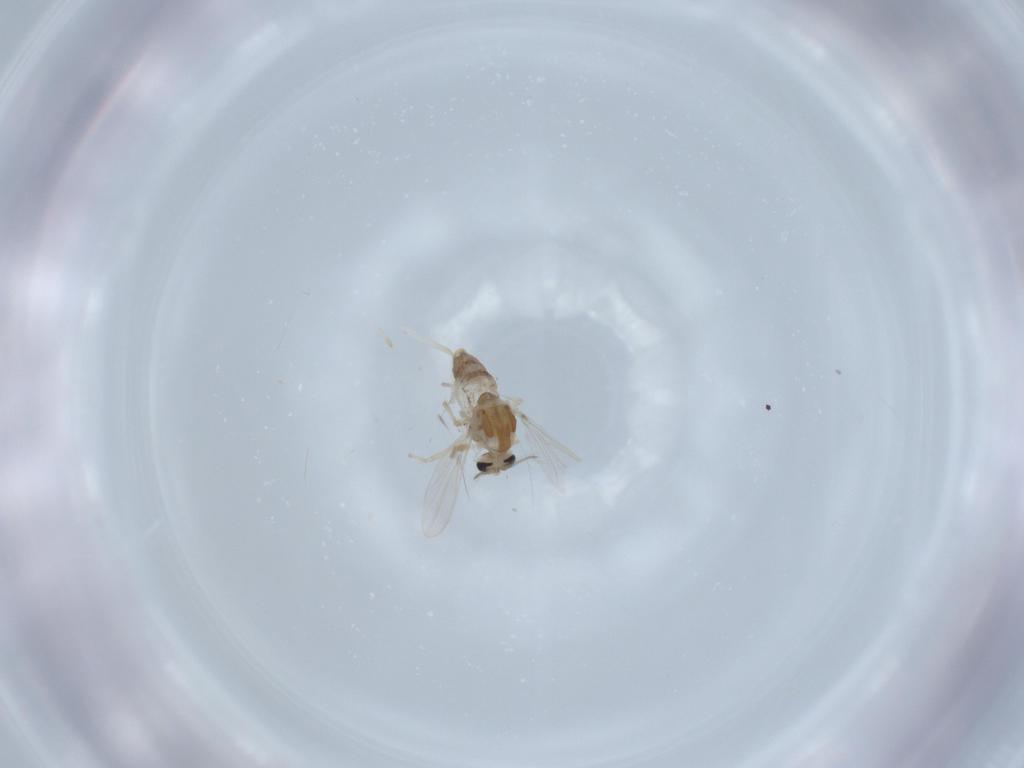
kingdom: Animalia
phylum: Arthropoda
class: Insecta
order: Diptera
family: Chironomidae
